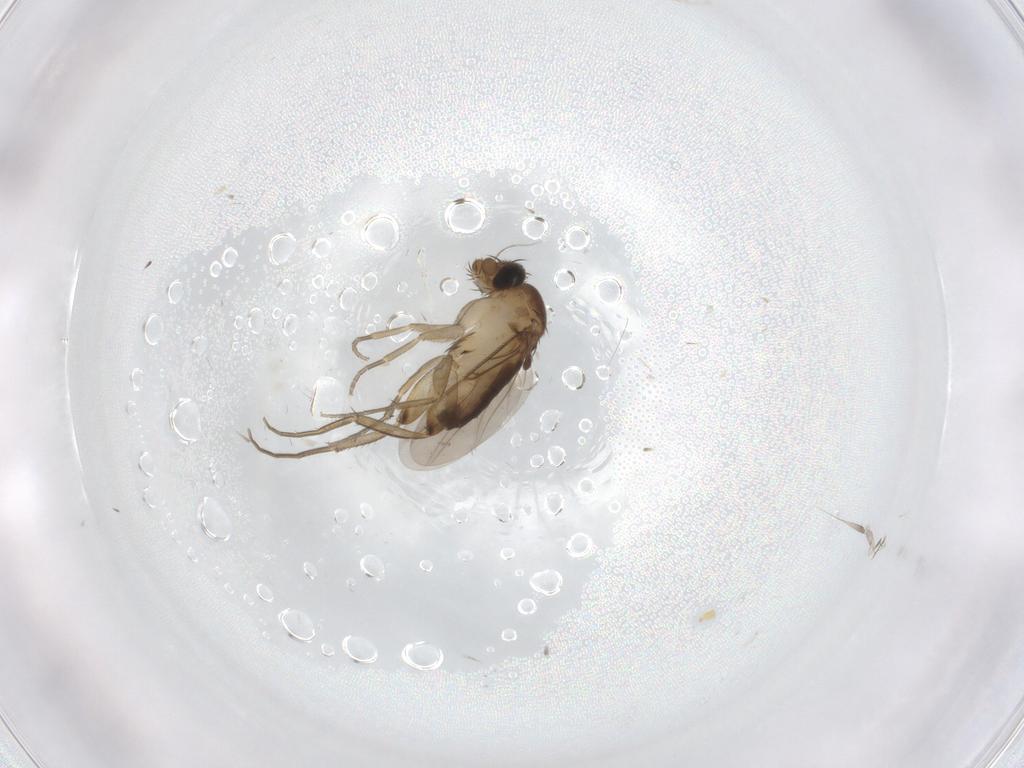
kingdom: Animalia
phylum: Arthropoda
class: Insecta
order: Diptera
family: Phoridae
